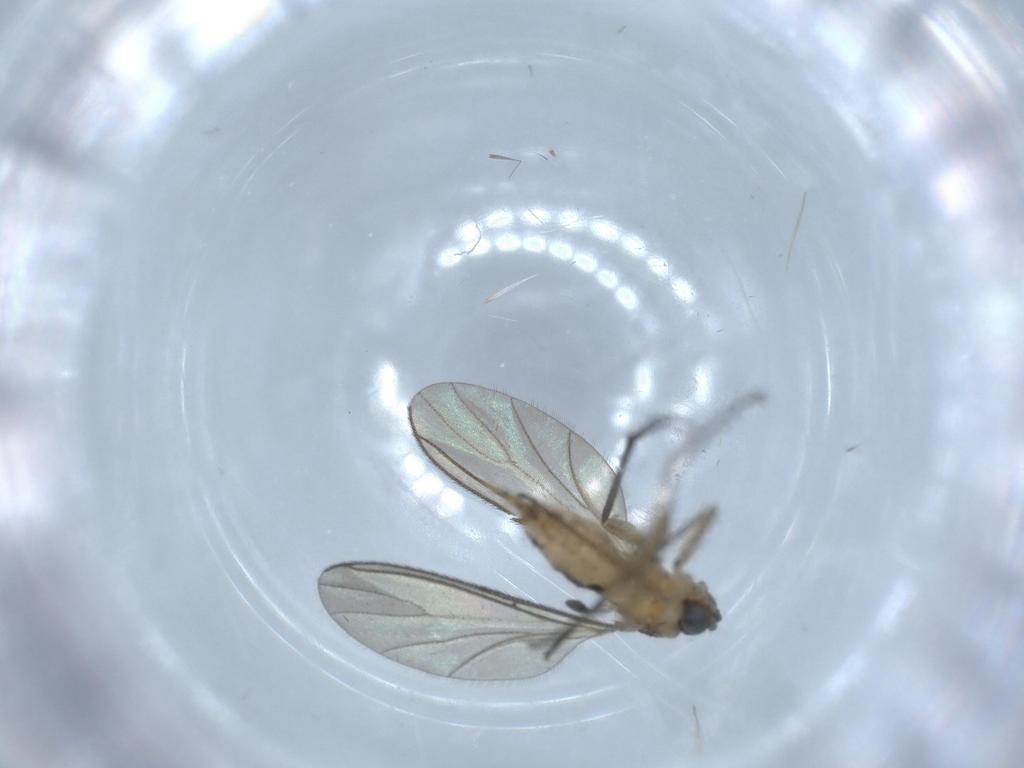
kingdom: Animalia
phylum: Arthropoda
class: Insecta
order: Diptera
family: Sciaridae
